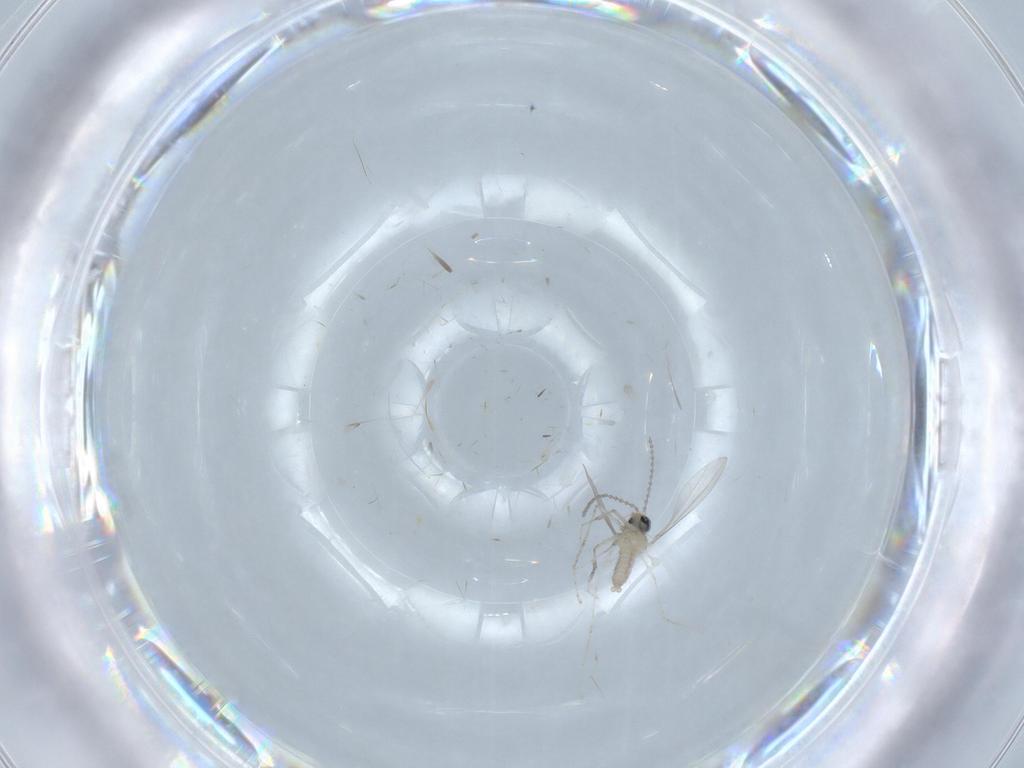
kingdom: Animalia
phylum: Arthropoda
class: Insecta
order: Diptera
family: Cecidomyiidae
